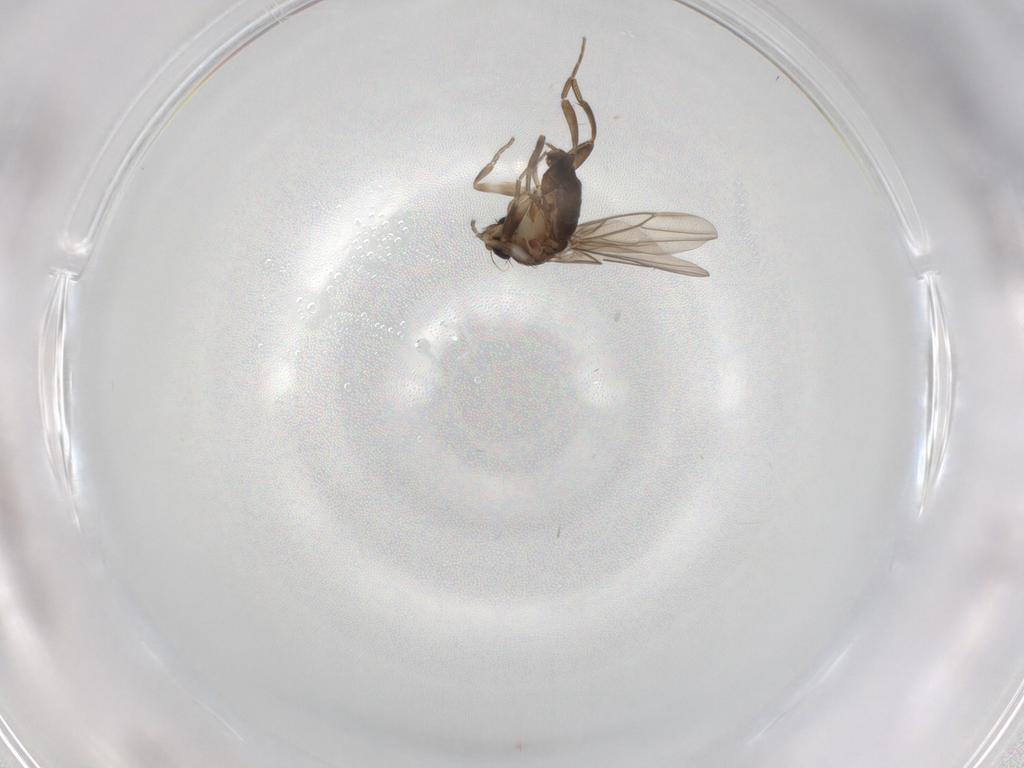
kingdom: Animalia
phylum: Arthropoda
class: Insecta
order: Diptera
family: Phoridae
